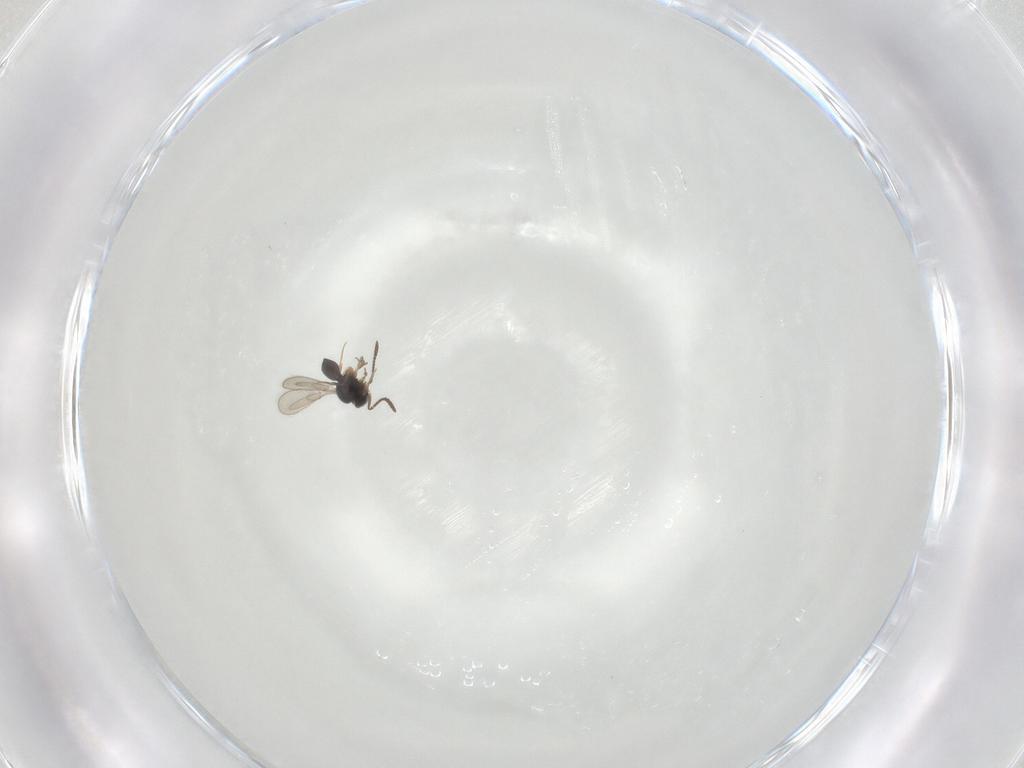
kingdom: Animalia
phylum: Arthropoda
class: Insecta
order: Hymenoptera
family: Scelionidae
